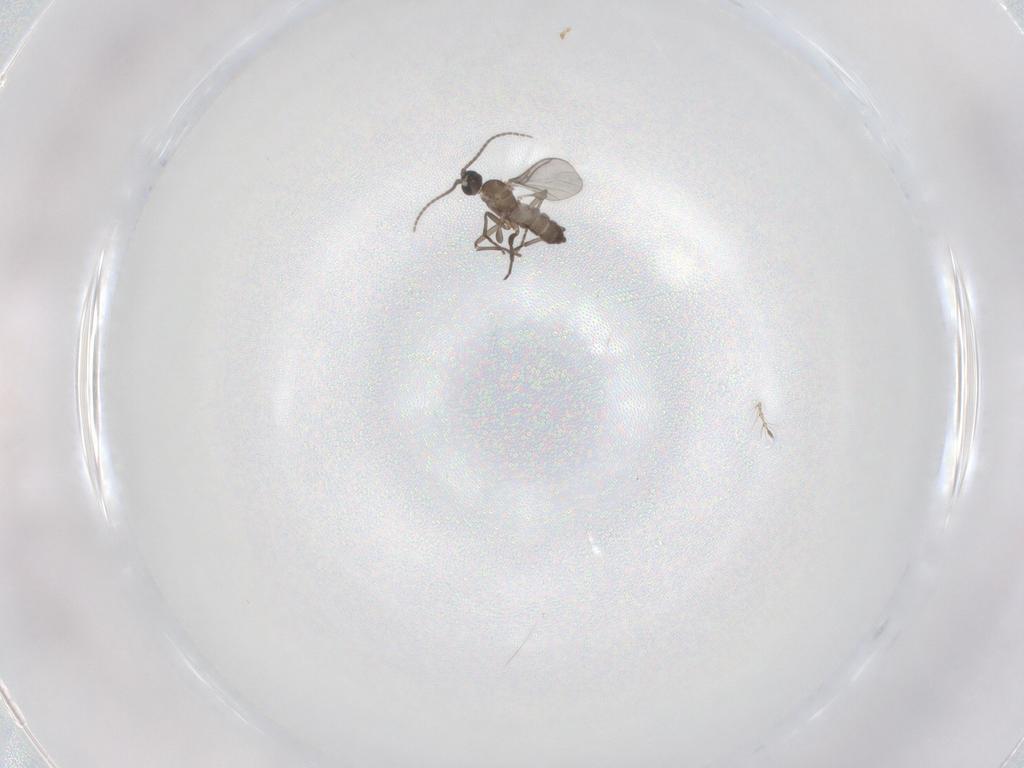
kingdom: Animalia
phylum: Arthropoda
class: Insecta
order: Diptera
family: Sciaridae
